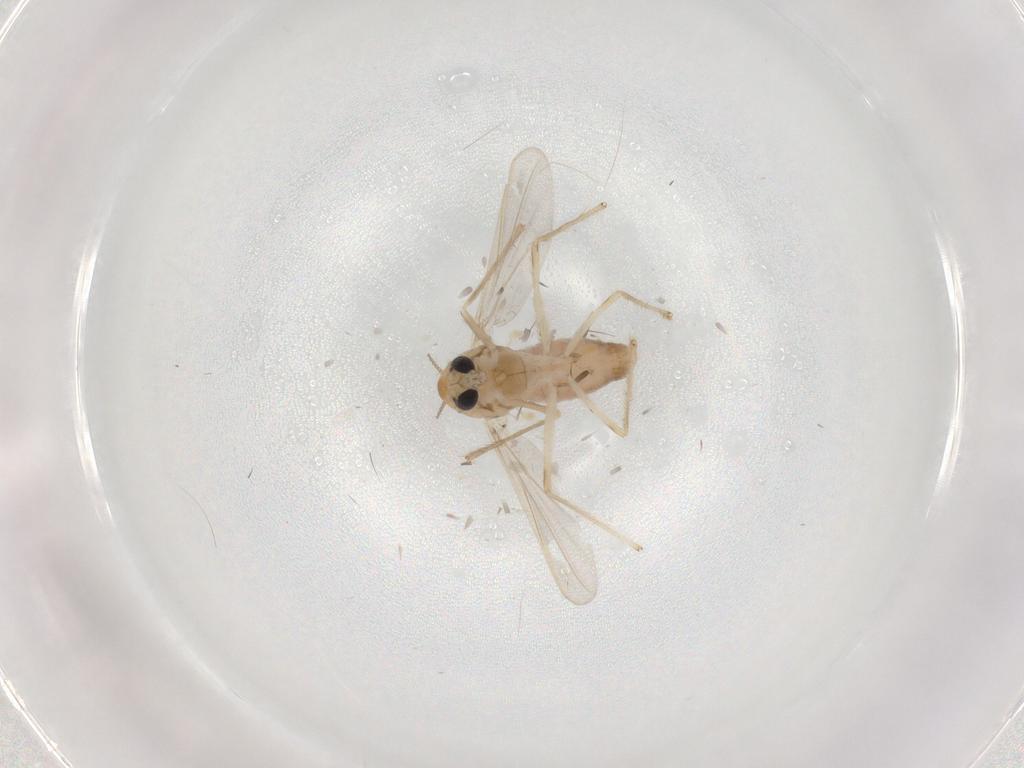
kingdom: Animalia
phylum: Arthropoda
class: Insecta
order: Diptera
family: Chironomidae
